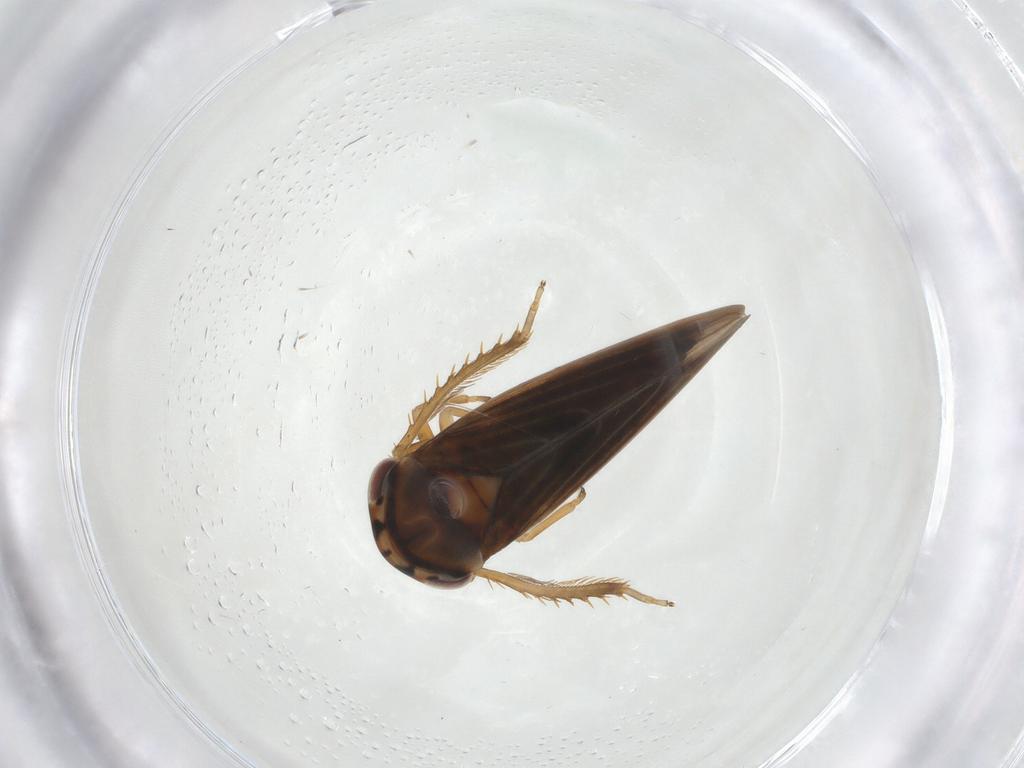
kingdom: Animalia
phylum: Arthropoda
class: Insecta
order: Hemiptera
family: Cicadellidae
